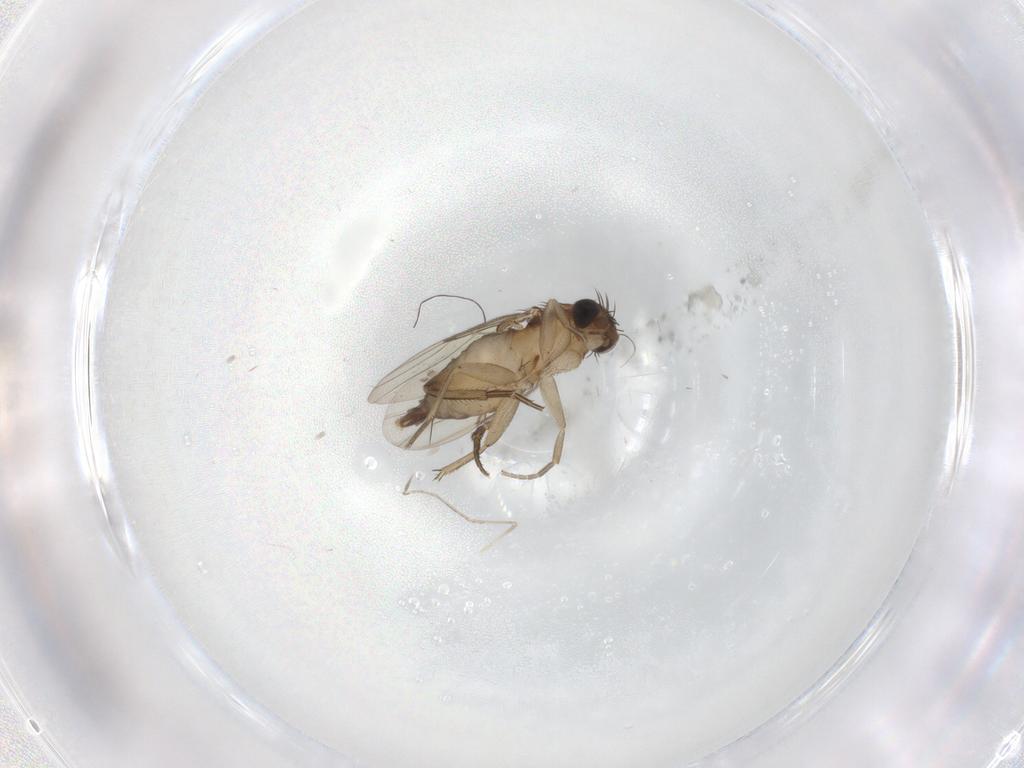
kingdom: Animalia
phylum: Arthropoda
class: Insecta
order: Diptera
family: Phoridae
